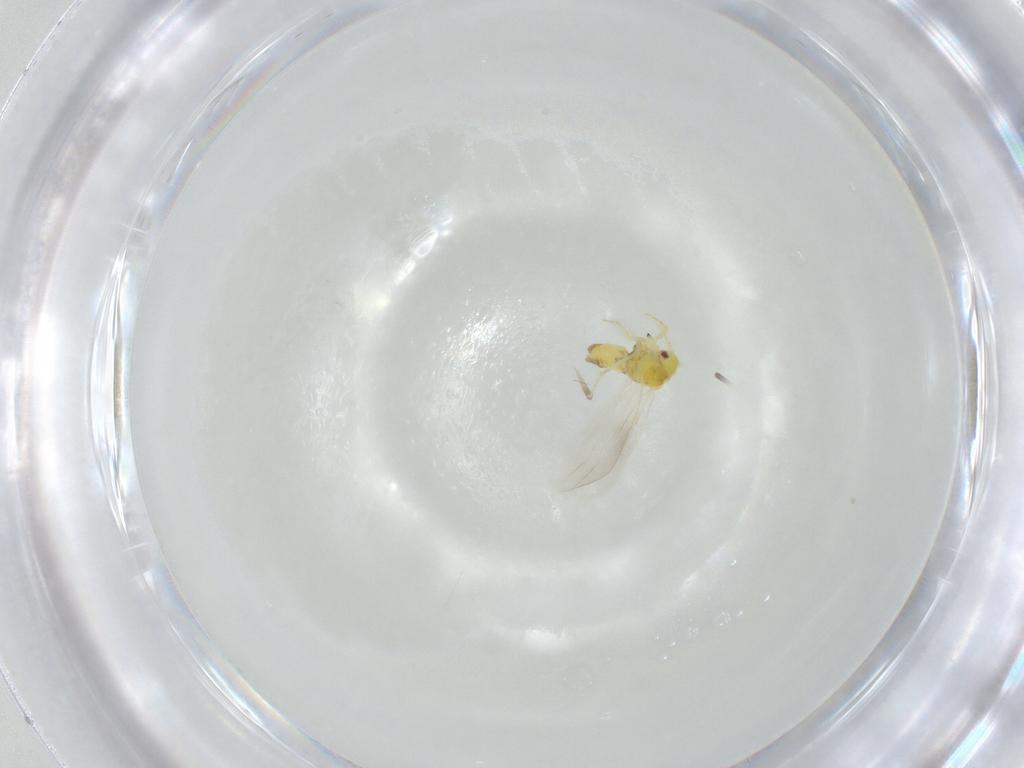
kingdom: Animalia
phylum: Arthropoda
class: Insecta
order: Hemiptera
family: Aleyrodidae
